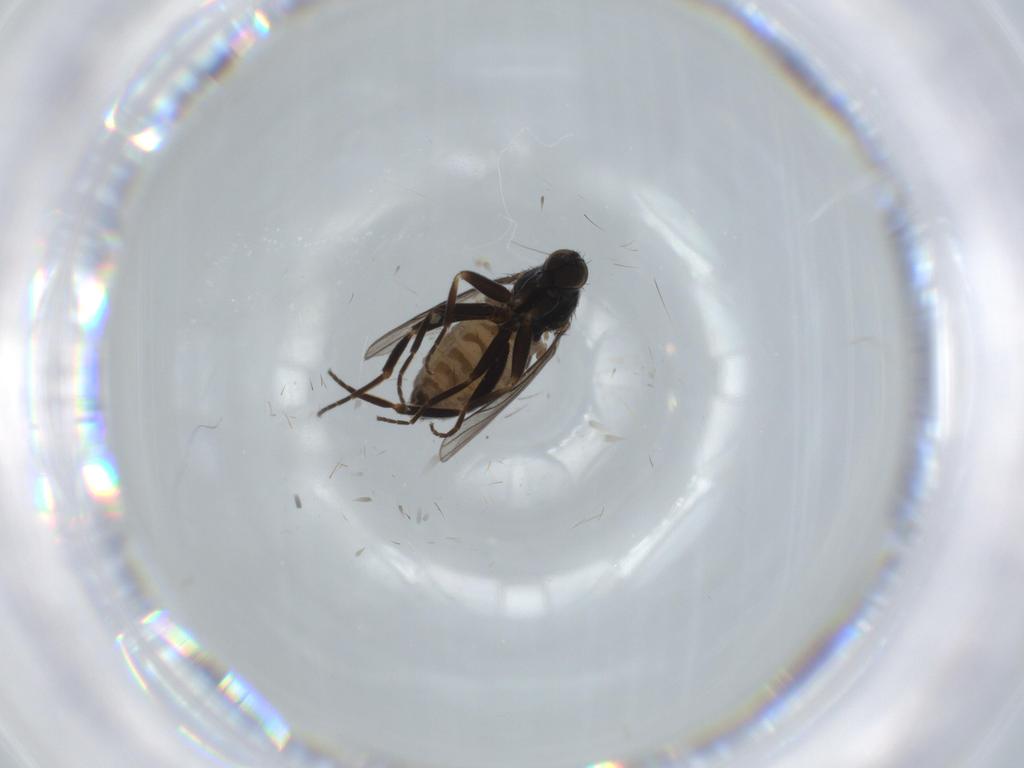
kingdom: Animalia
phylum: Arthropoda
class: Insecta
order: Diptera
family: Hybotidae
